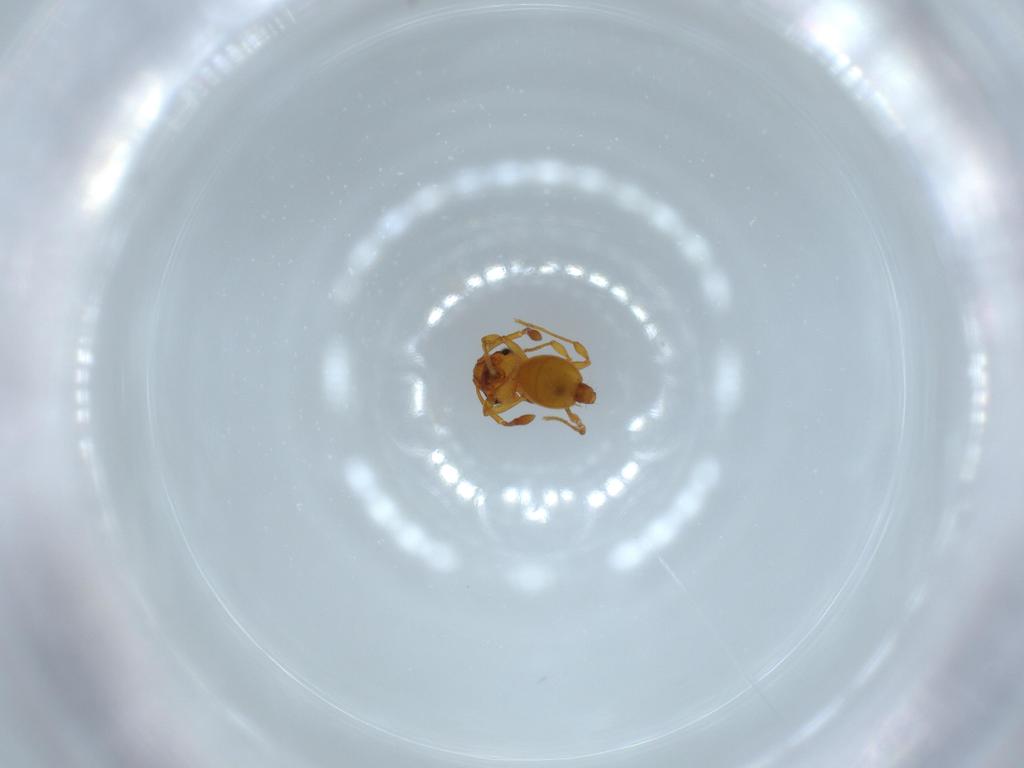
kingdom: Animalia
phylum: Arthropoda
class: Insecta
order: Hymenoptera
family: Formicidae
